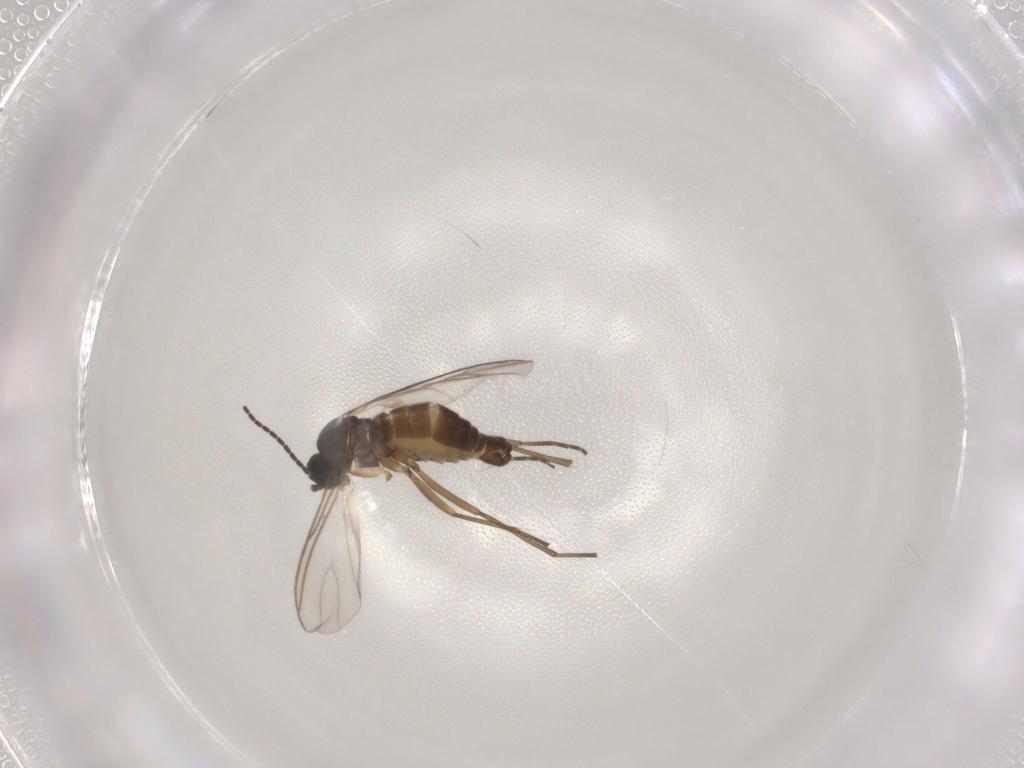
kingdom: Animalia
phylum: Arthropoda
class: Insecta
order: Diptera
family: Sciaridae
